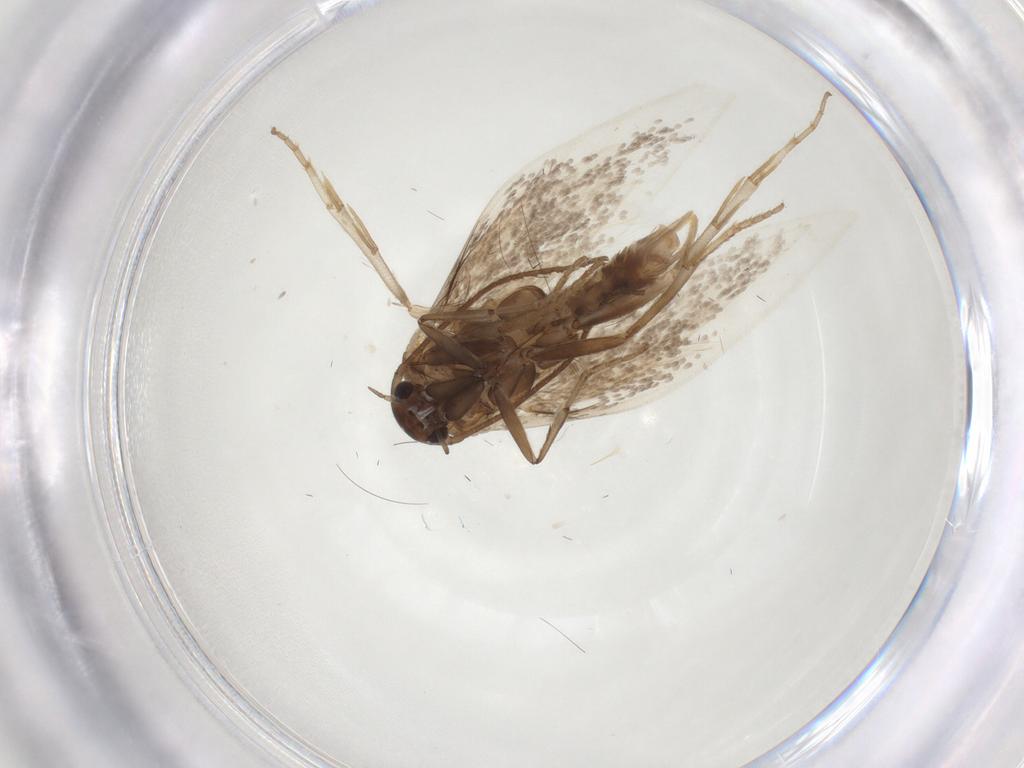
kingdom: Animalia
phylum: Arthropoda
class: Insecta
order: Lepidoptera
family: Elachistidae
